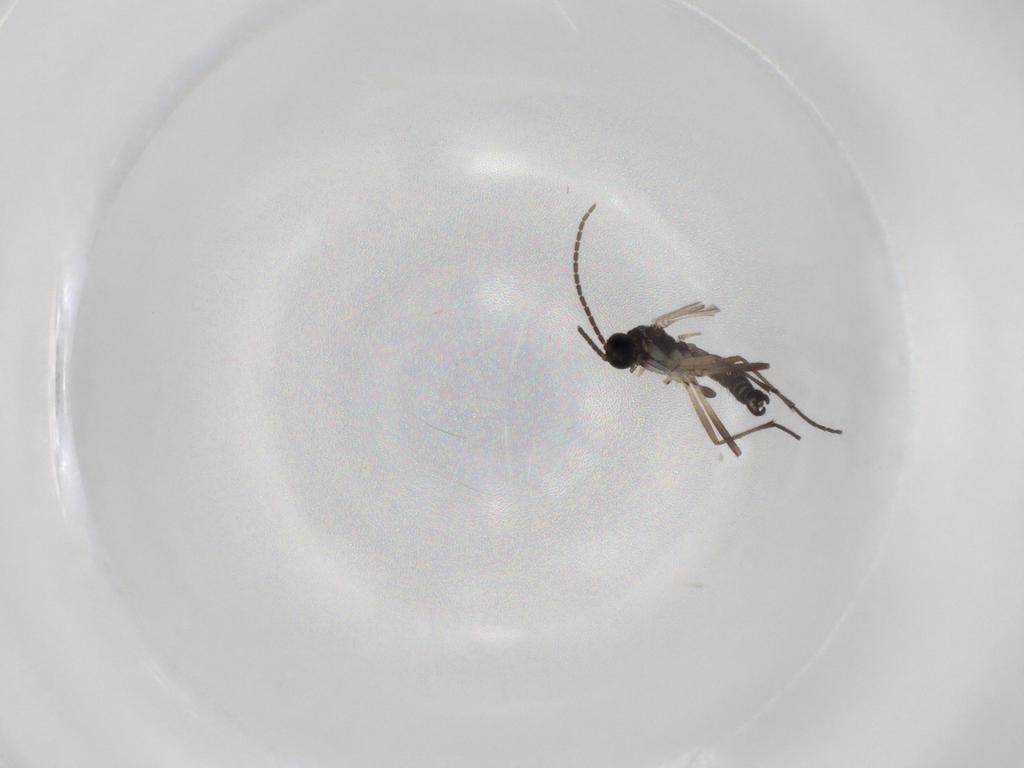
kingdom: Animalia
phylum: Arthropoda
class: Insecta
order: Diptera
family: Sciaridae
